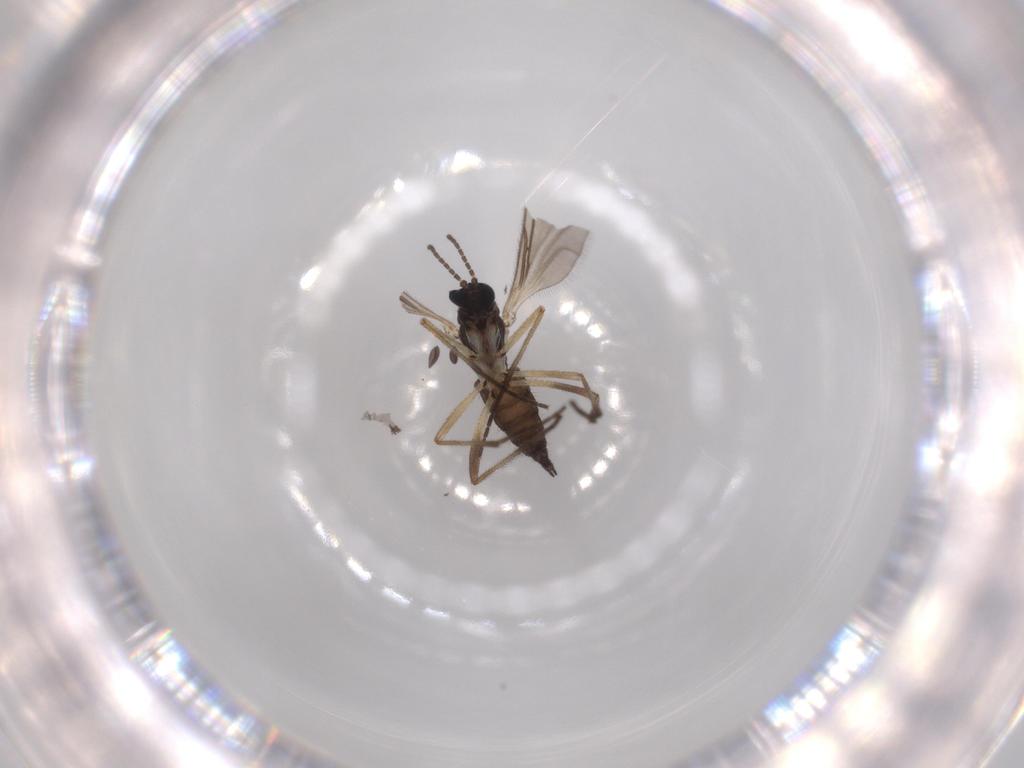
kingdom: Animalia
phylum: Arthropoda
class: Insecta
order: Diptera
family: Sciaridae
